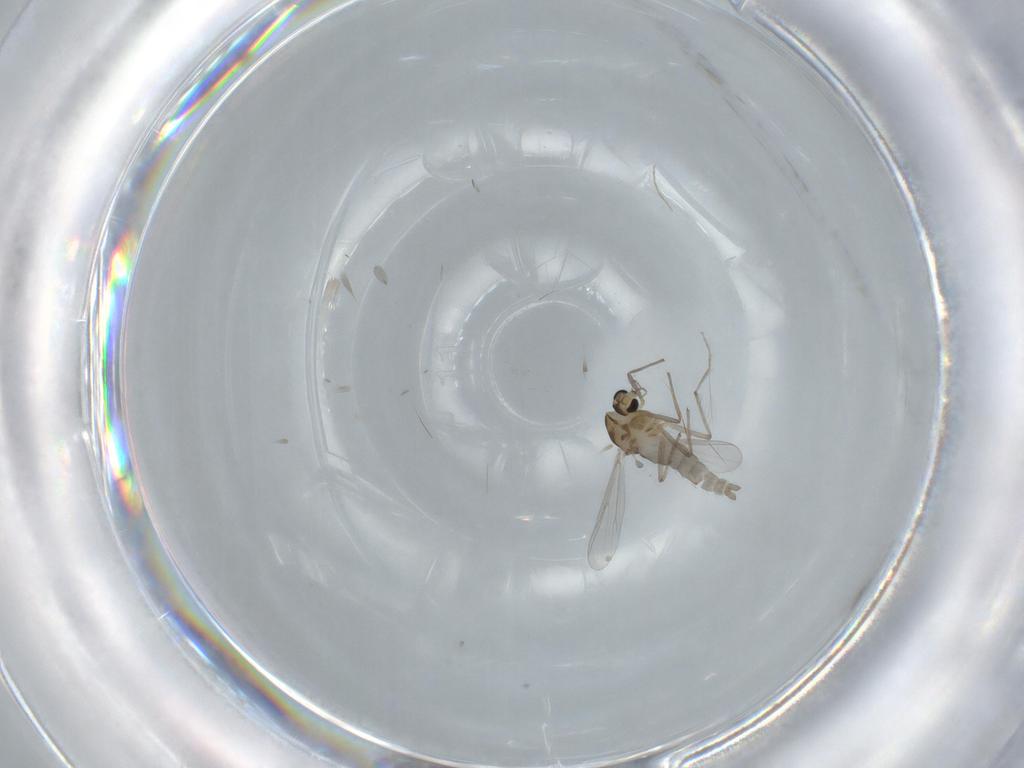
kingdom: Animalia
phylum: Arthropoda
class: Insecta
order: Diptera
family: Chironomidae
